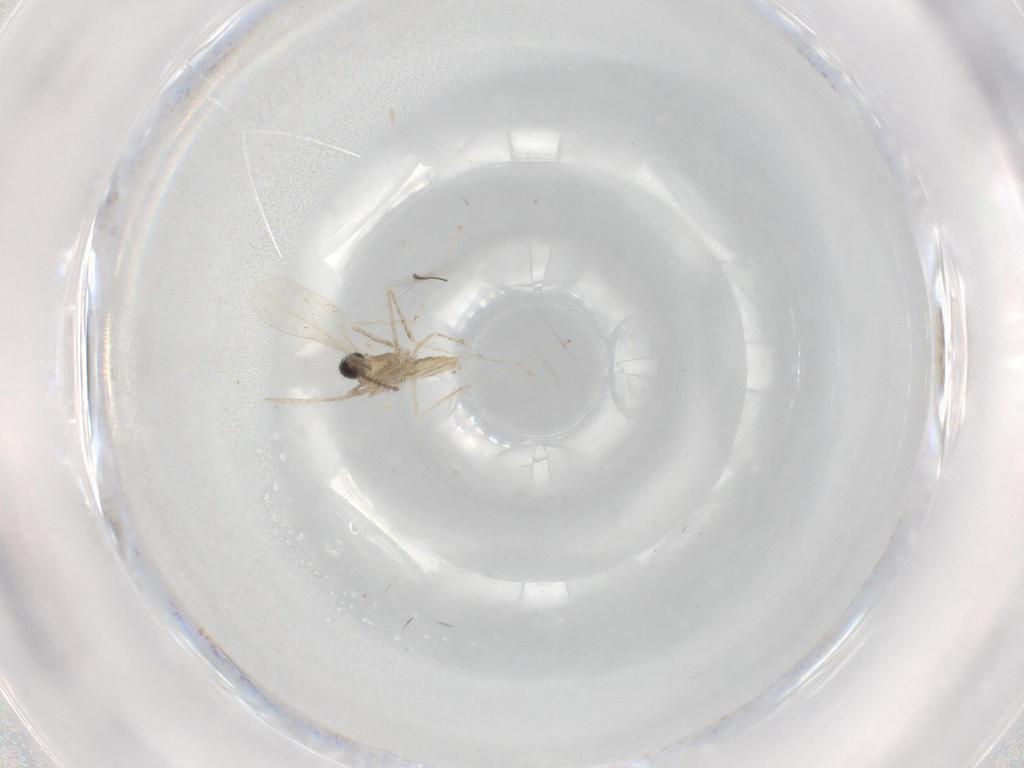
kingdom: Animalia
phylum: Arthropoda
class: Insecta
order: Diptera
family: Cecidomyiidae
